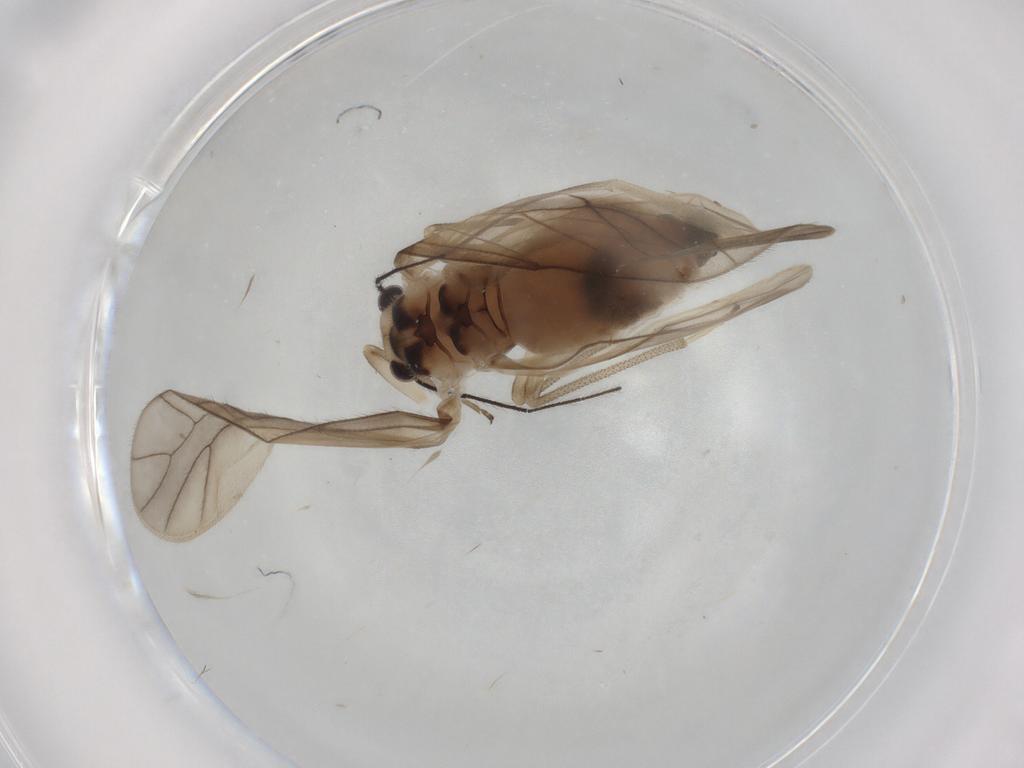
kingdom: Animalia
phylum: Arthropoda
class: Insecta
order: Psocodea
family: Caeciliusidae
